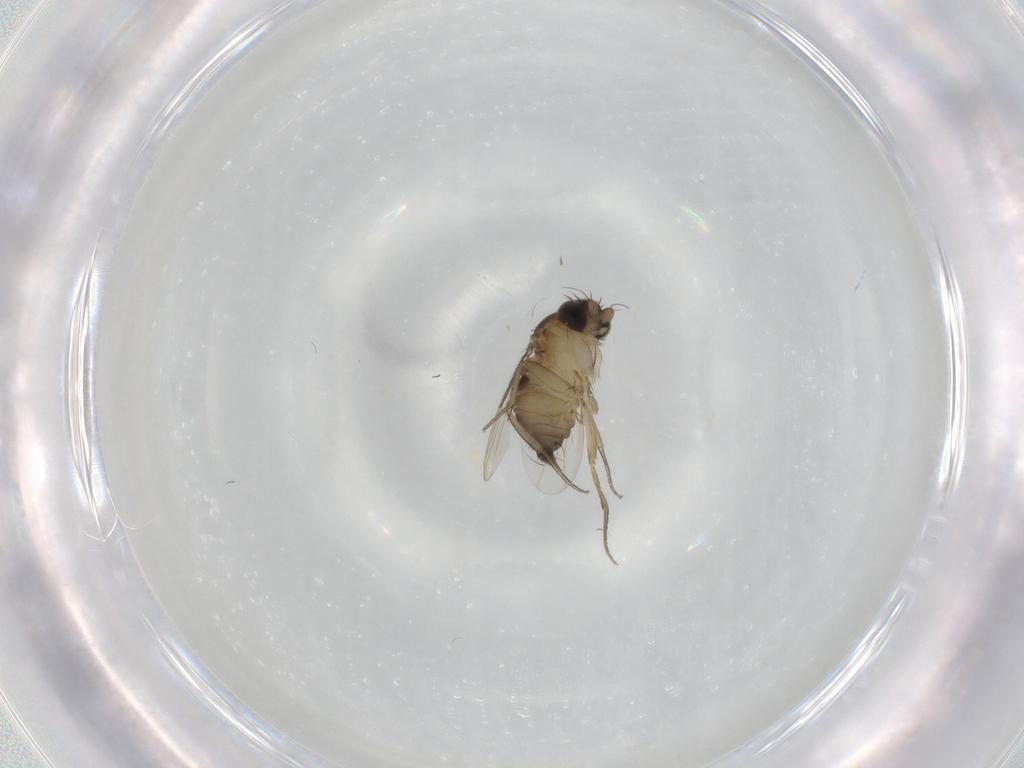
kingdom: Animalia
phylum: Arthropoda
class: Insecta
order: Diptera
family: Phoridae
